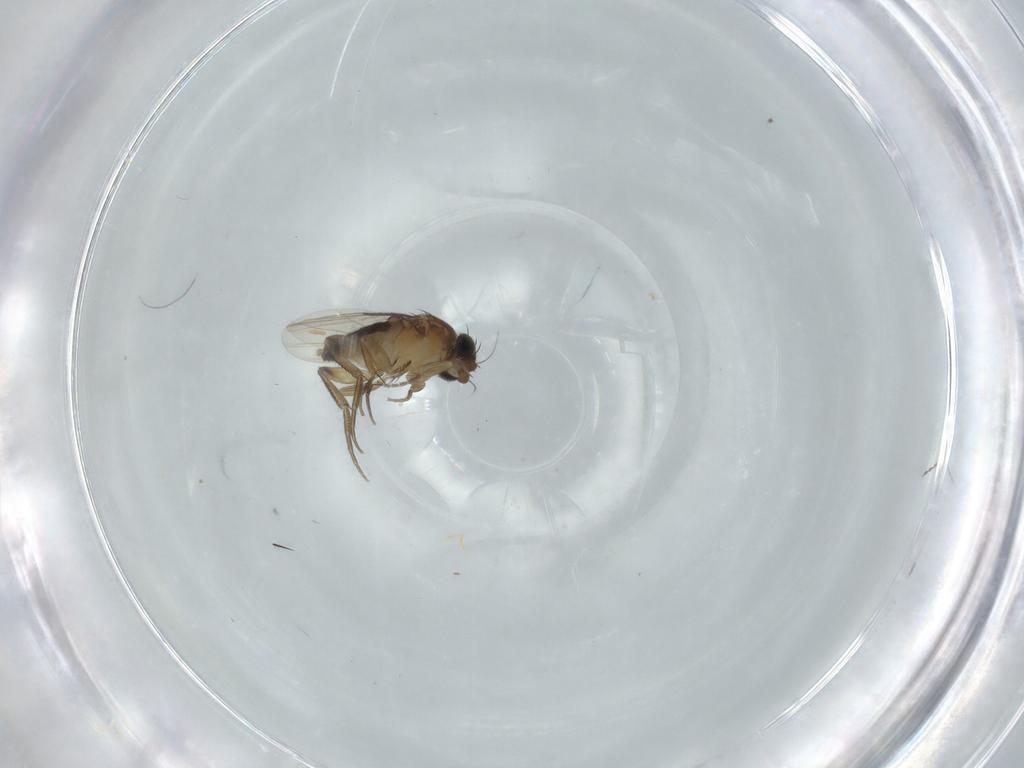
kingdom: Animalia
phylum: Arthropoda
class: Insecta
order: Diptera
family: Phoridae
